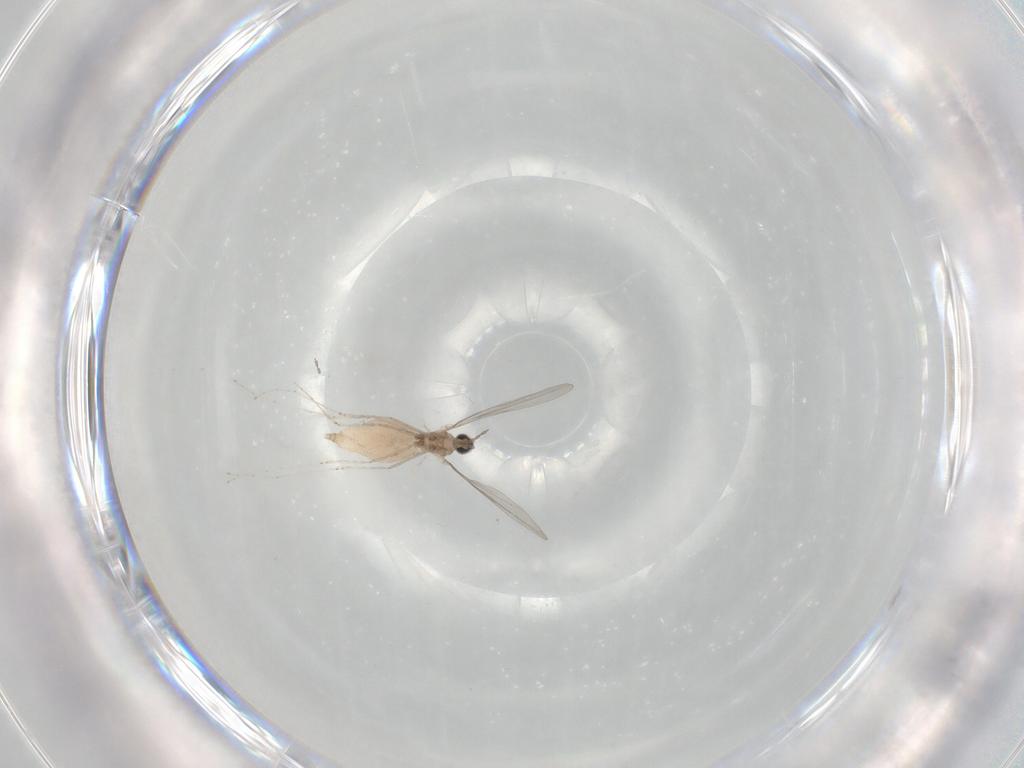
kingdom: Animalia
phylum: Arthropoda
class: Insecta
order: Diptera
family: Cecidomyiidae
